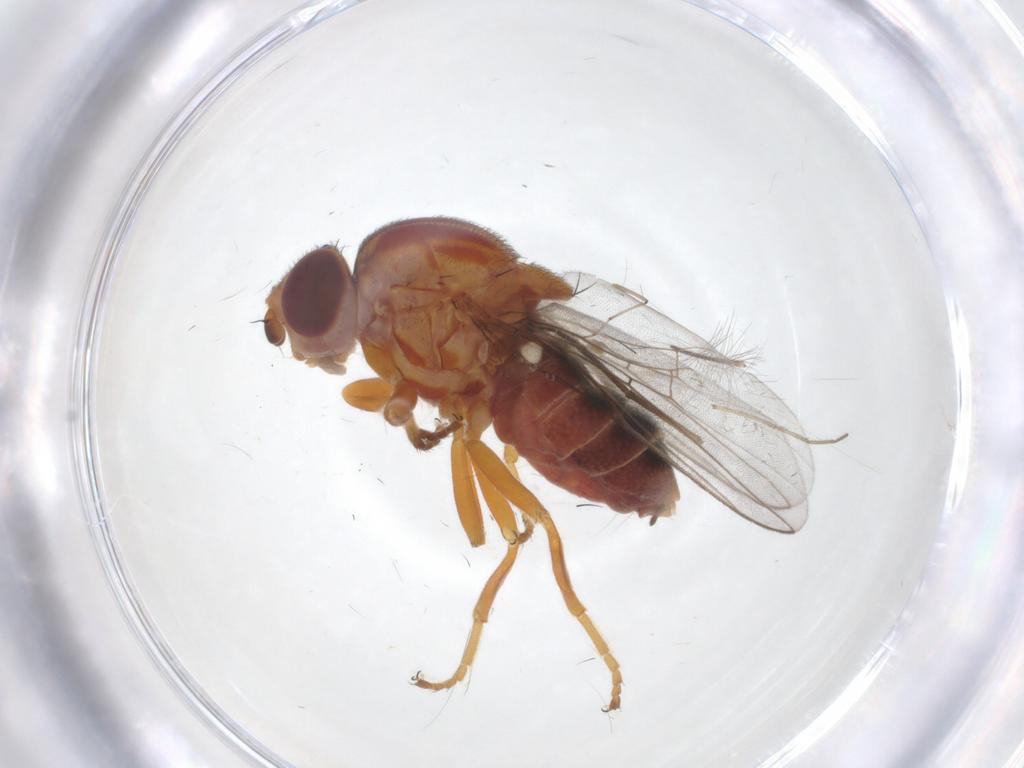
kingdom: Animalia
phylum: Arthropoda
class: Insecta
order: Diptera
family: Chloropidae
